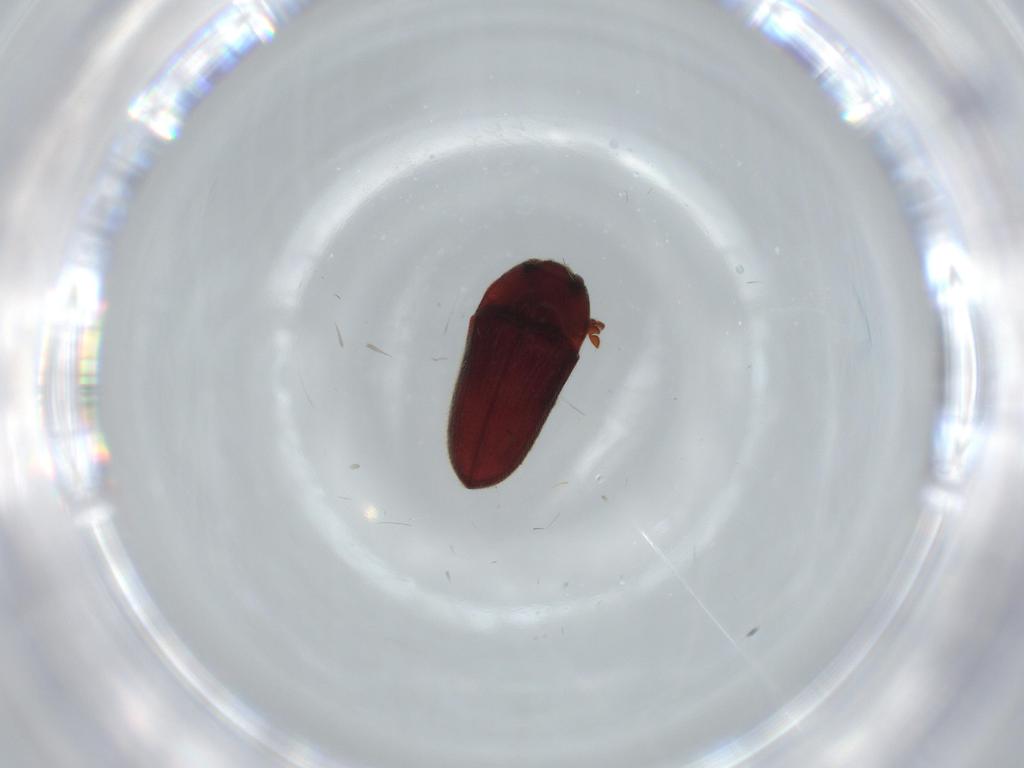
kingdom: Animalia
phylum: Arthropoda
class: Insecta
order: Coleoptera
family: Throscidae
